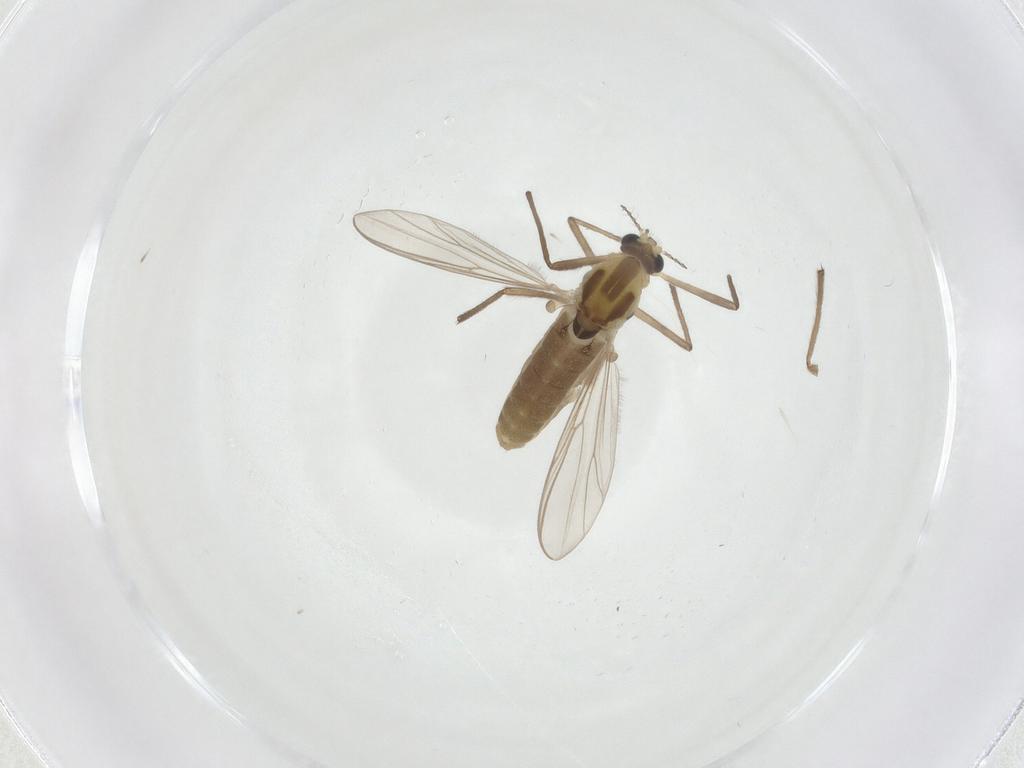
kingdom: Animalia
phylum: Arthropoda
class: Insecta
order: Diptera
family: Chironomidae
